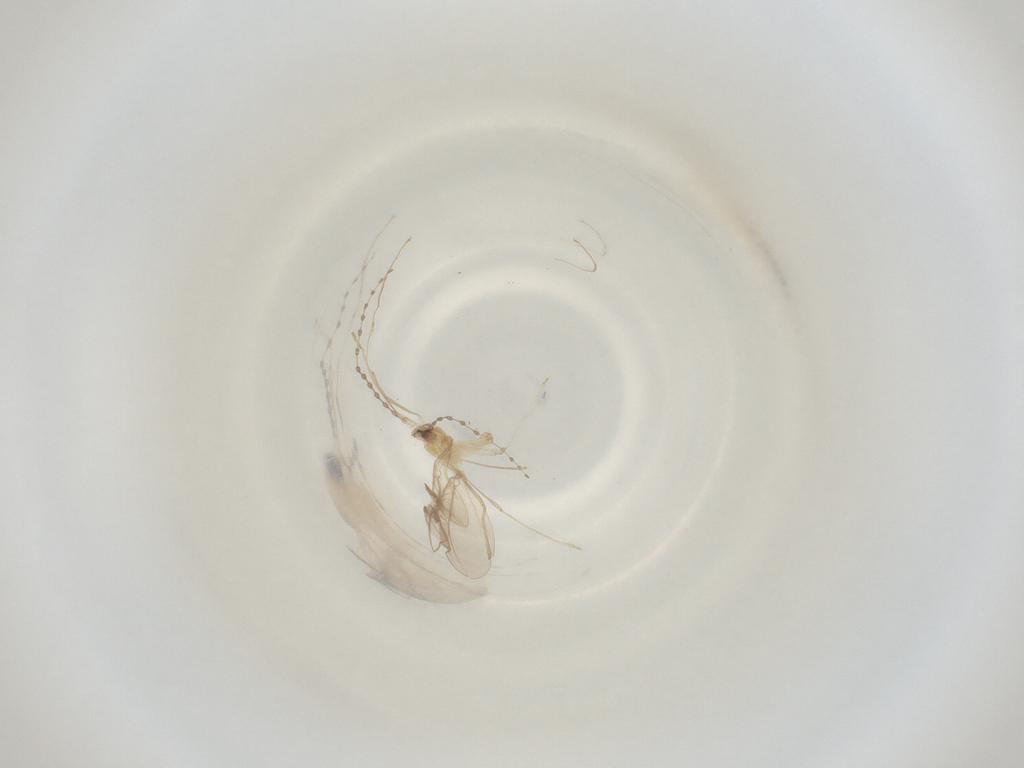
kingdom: Animalia
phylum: Arthropoda
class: Insecta
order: Diptera
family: Cecidomyiidae
